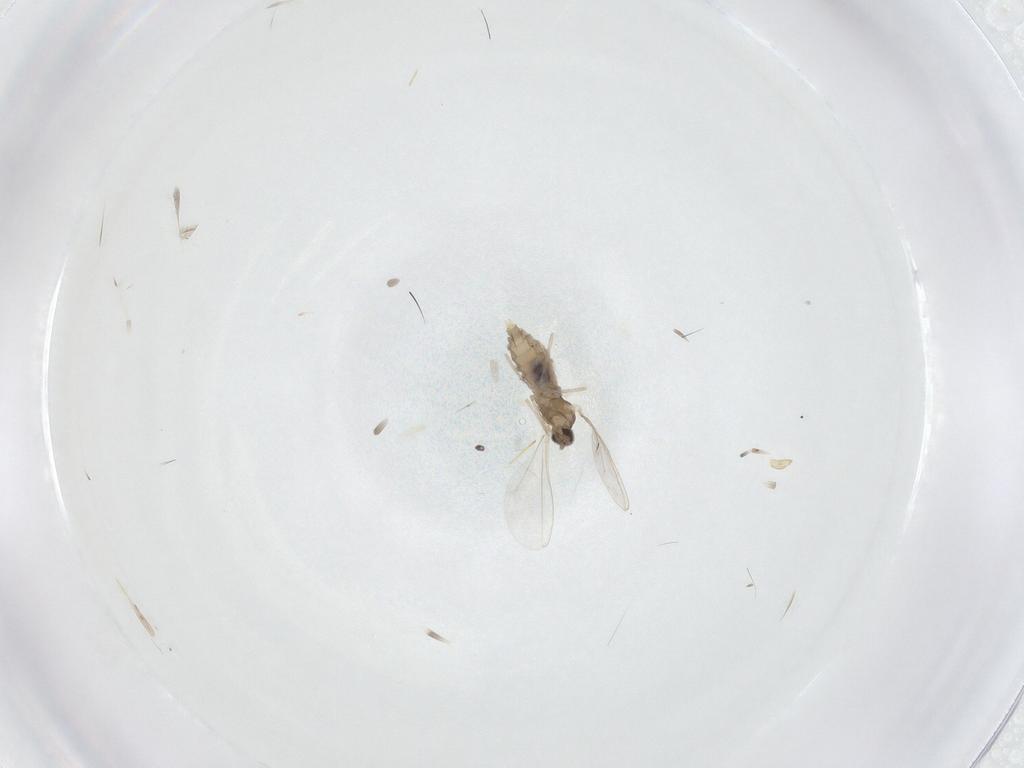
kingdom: Animalia
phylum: Arthropoda
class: Insecta
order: Diptera
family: Cecidomyiidae
